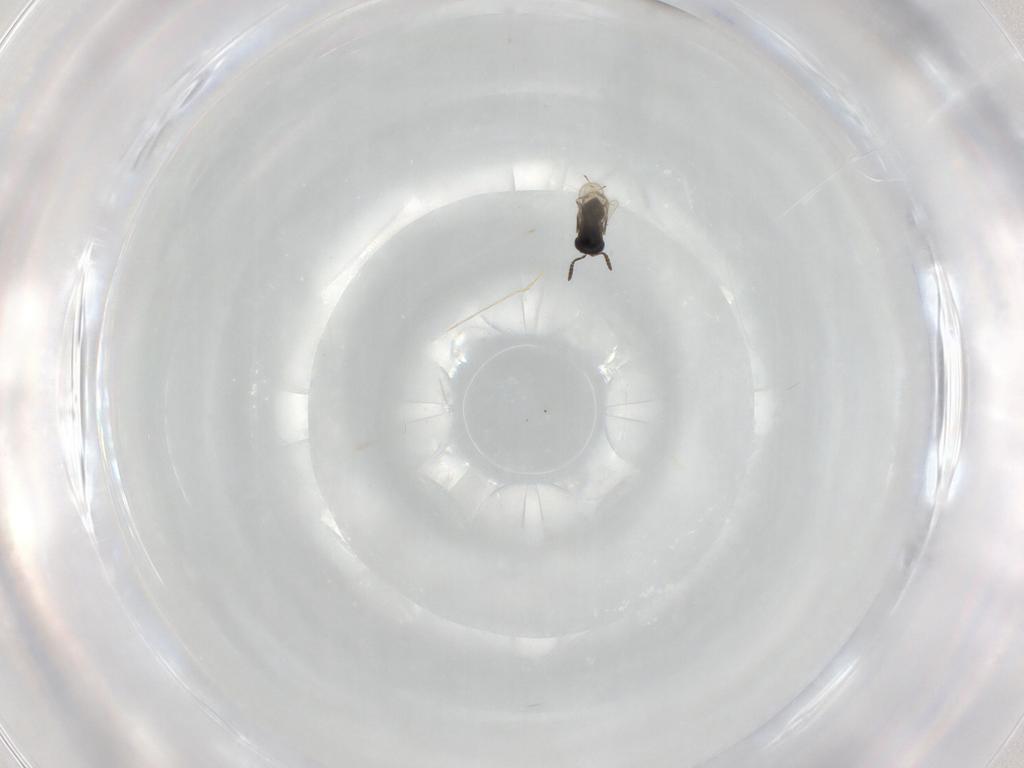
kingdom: Animalia
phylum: Arthropoda
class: Insecta
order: Hymenoptera
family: Scelionidae
